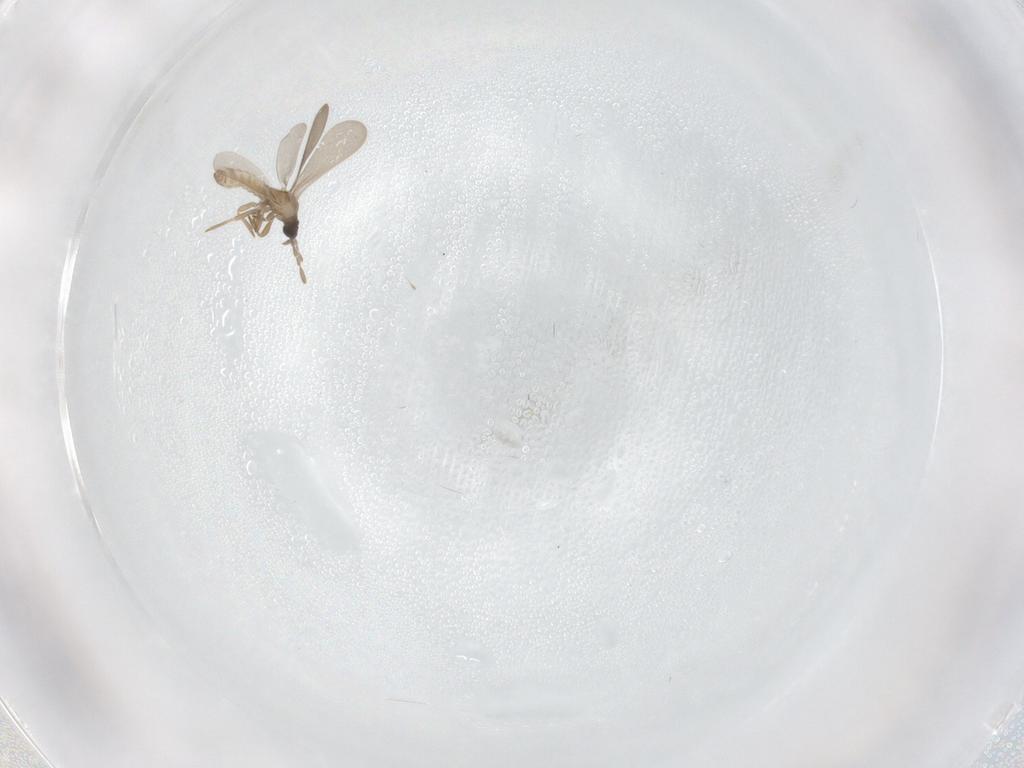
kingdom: Animalia
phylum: Arthropoda
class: Insecta
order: Hemiptera
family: Enicocephalidae
